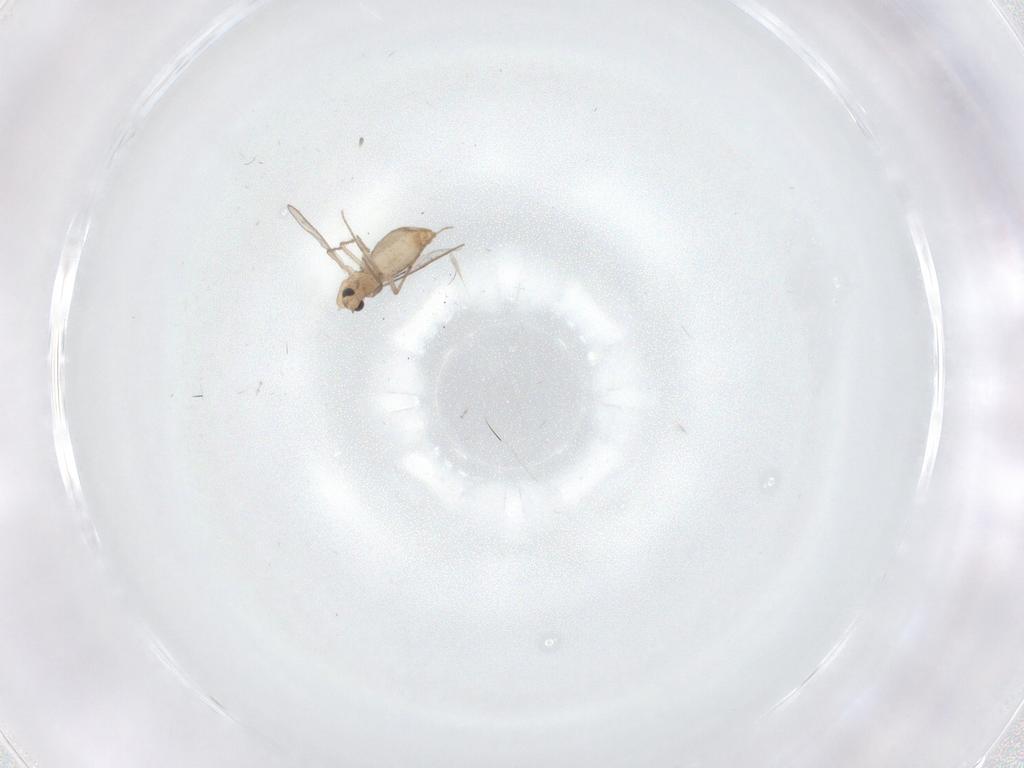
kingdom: Animalia
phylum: Arthropoda
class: Insecta
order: Diptera
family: Chironomidae
